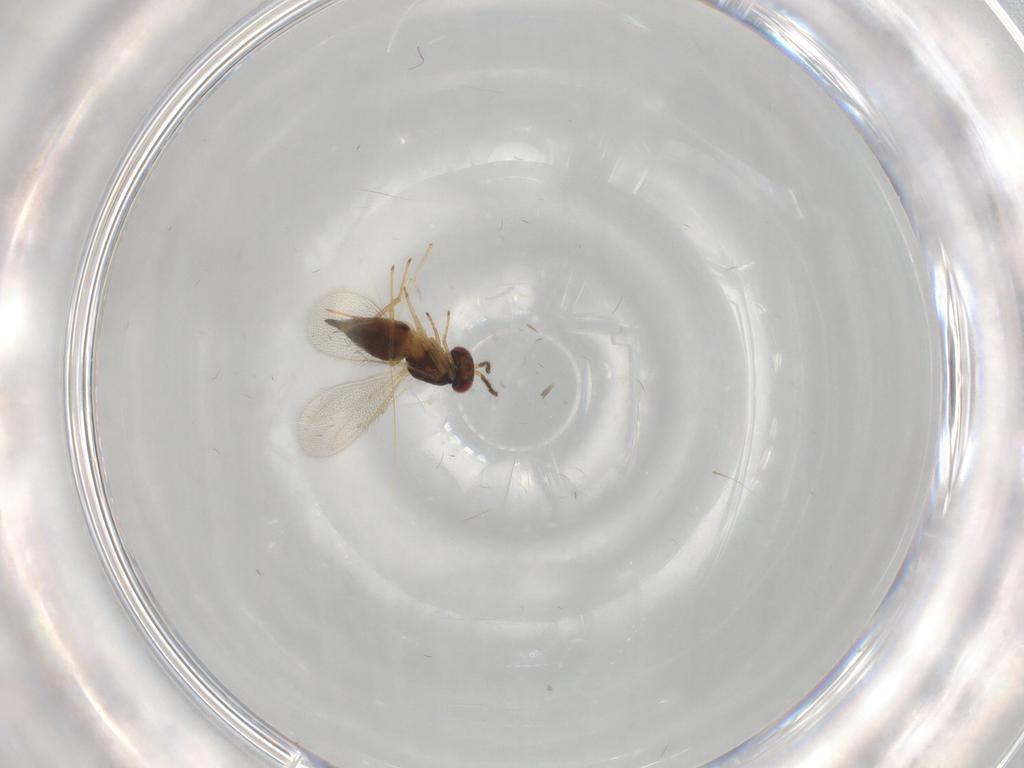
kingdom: Animalia
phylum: Arthropoda
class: Insecta
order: Hymenoptera
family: Eulophidae
